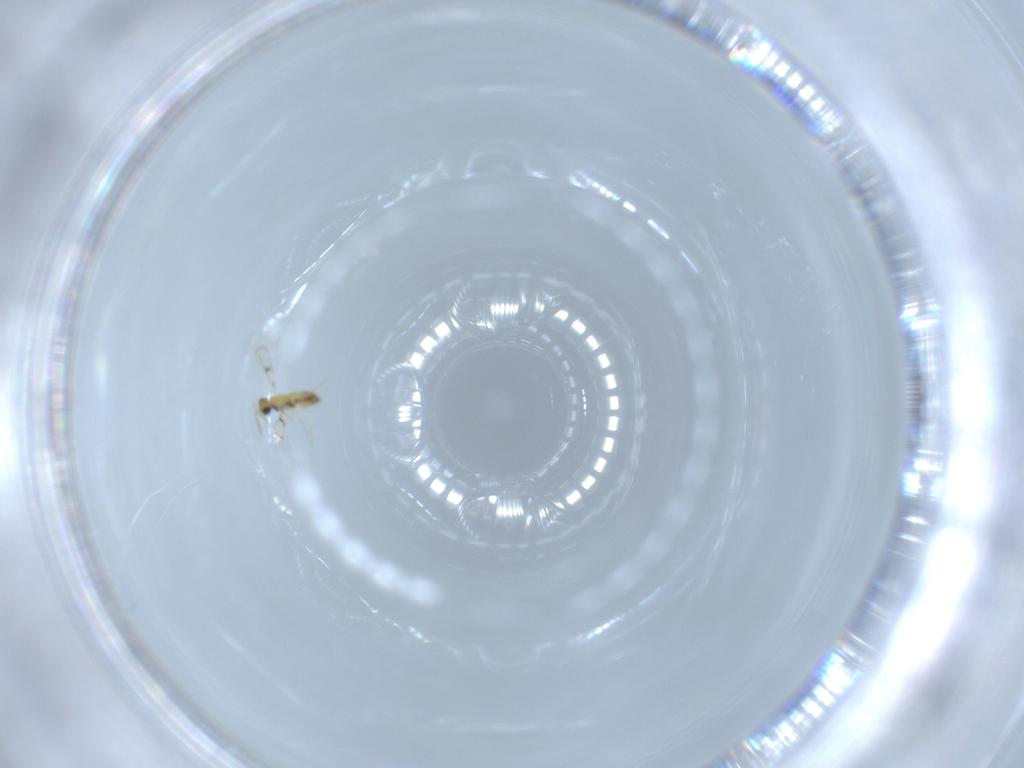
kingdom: Animalia
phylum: Arthropoda
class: Insecta
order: Hymenoptera
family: Trichogrammatidae
